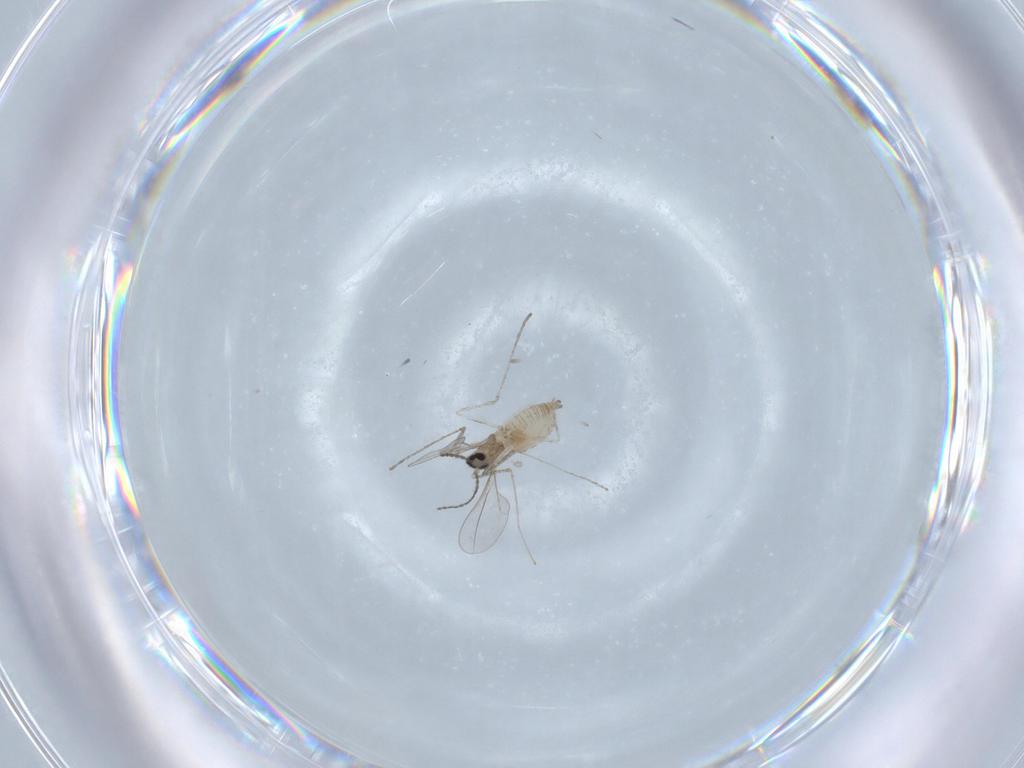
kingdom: Animalia
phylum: Arthropoda
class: Insecta
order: Diptera
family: Cecidomyiidae
